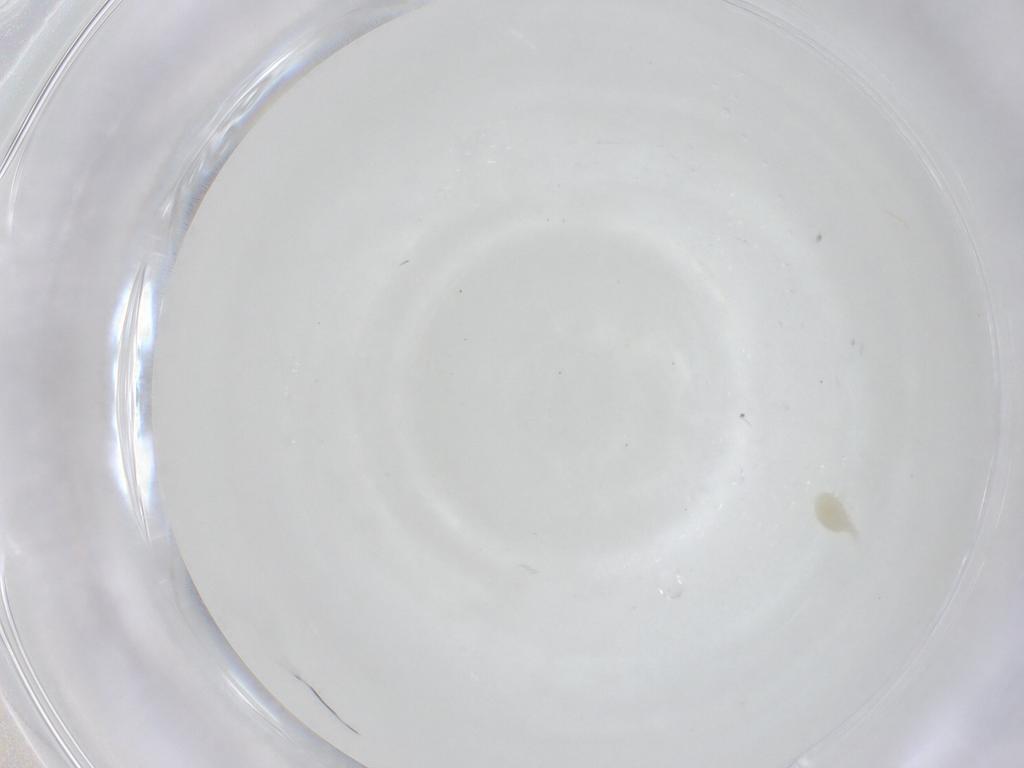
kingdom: Animalia
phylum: Arthropoda
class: Arachnida
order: Trombidiformes
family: Stigmaeidae
